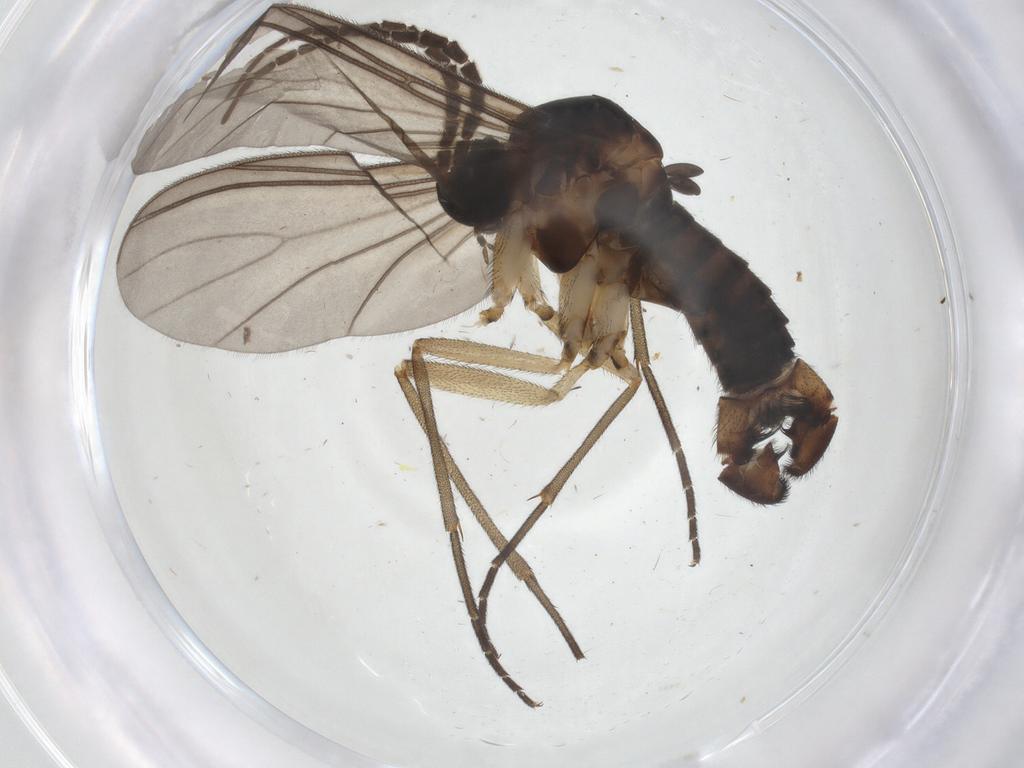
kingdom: Animalia
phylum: Arthropoda
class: Insecta
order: Diptera
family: Sciaridae
